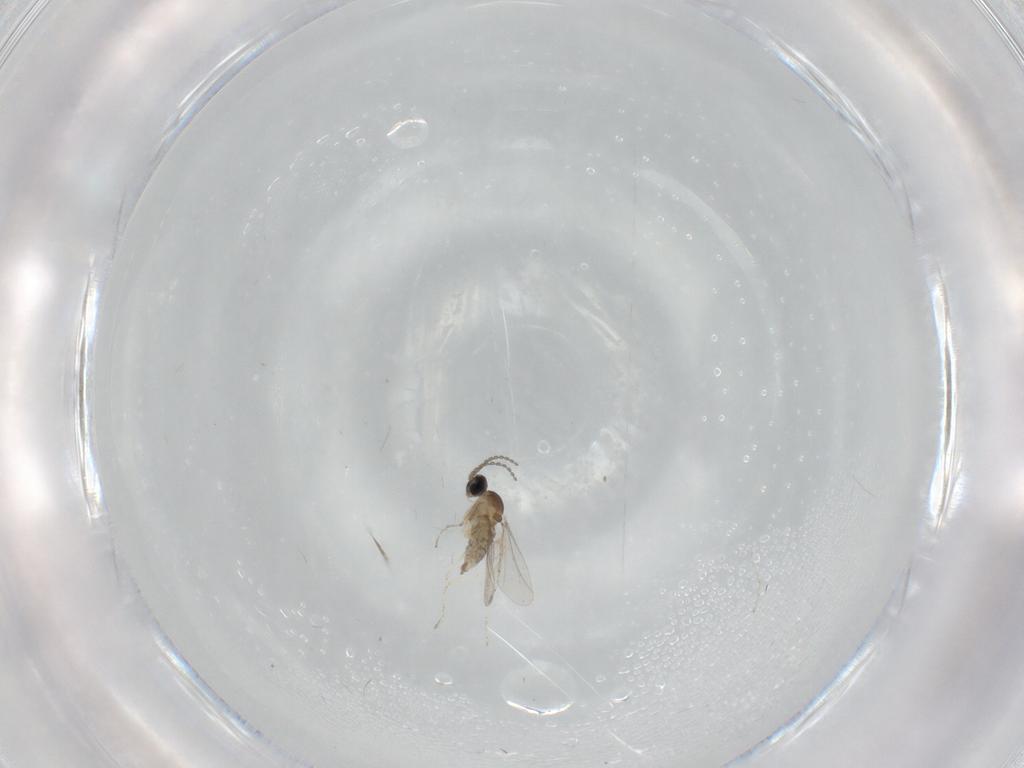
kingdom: Animalia
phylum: Arthropoda
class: Insecta
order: Diptera
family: Cecidomyiidae
